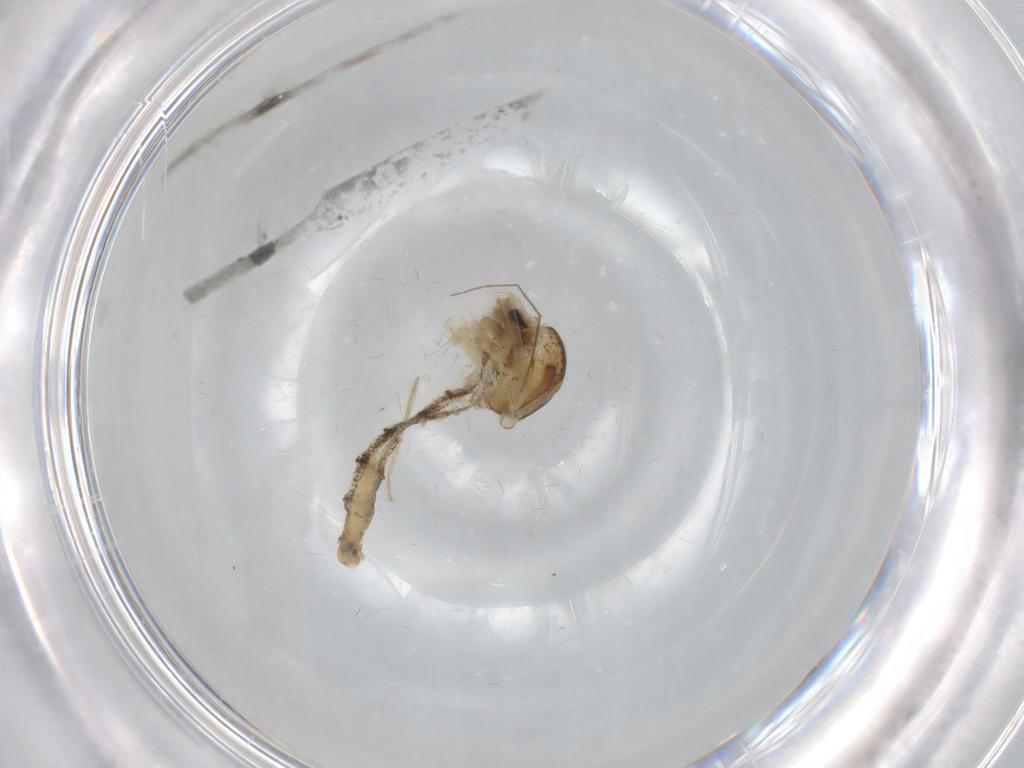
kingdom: Animalia
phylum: Arthropoda
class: Insecta
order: Diptera
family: Chaoboridae
